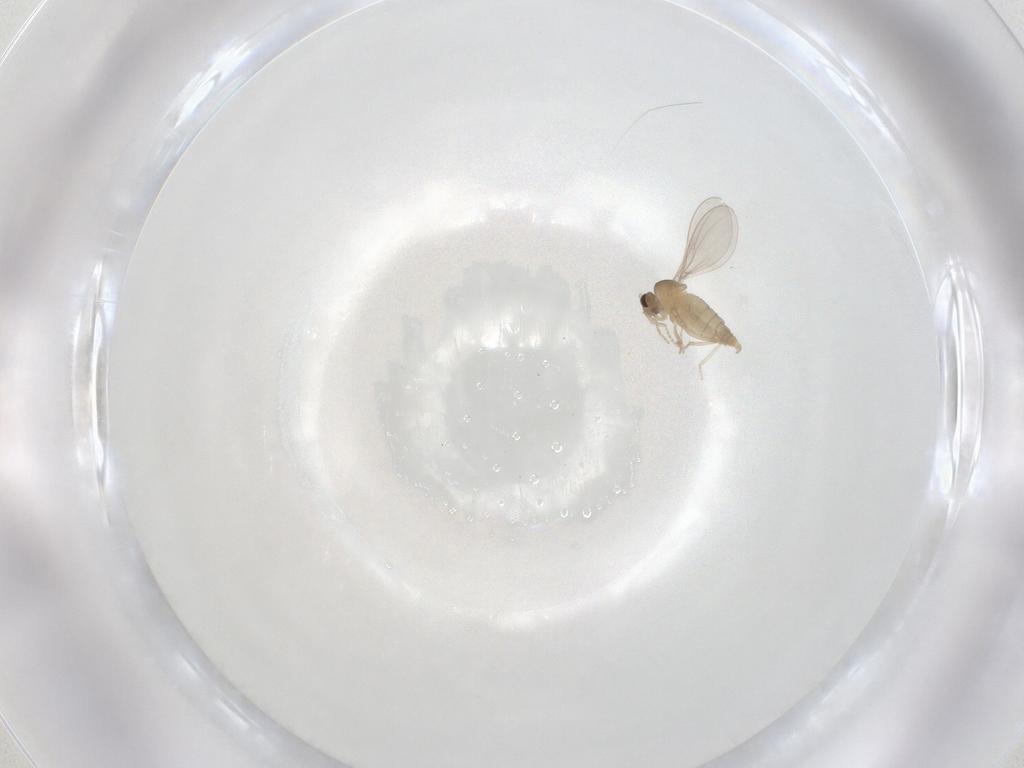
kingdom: Animalia
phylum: Arthropoda
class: Insecta
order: Diptera
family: Cecidomyiidae
